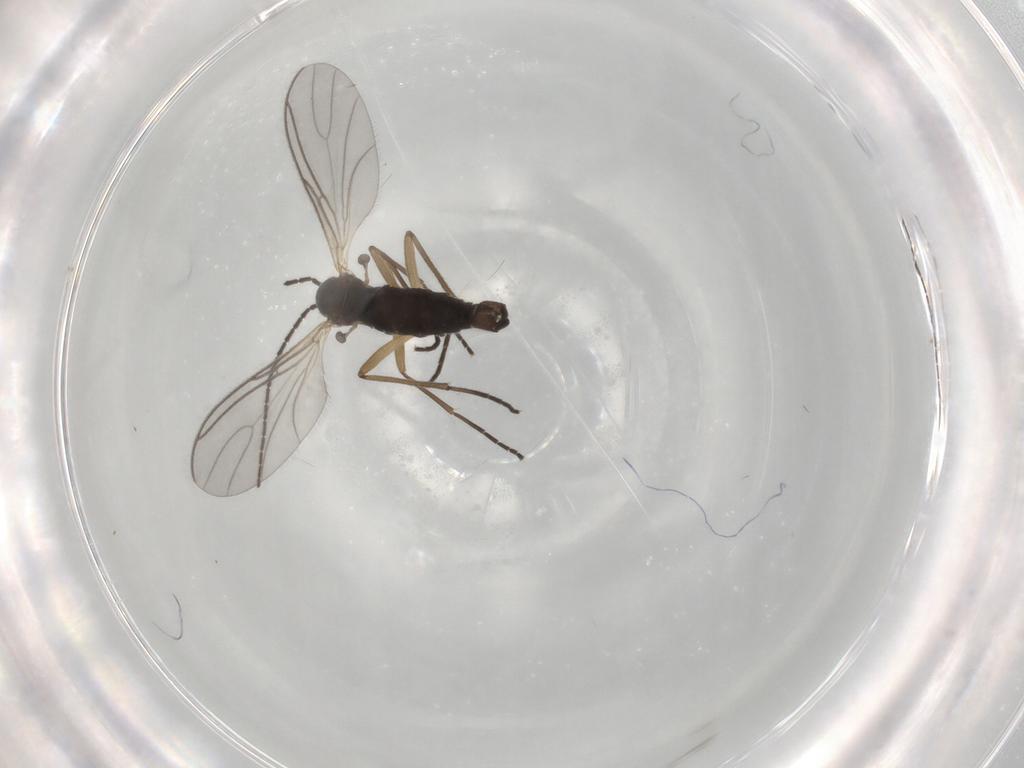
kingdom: Animalia
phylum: Arthropoda
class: Insecta
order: Diptera
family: Sciaridae
